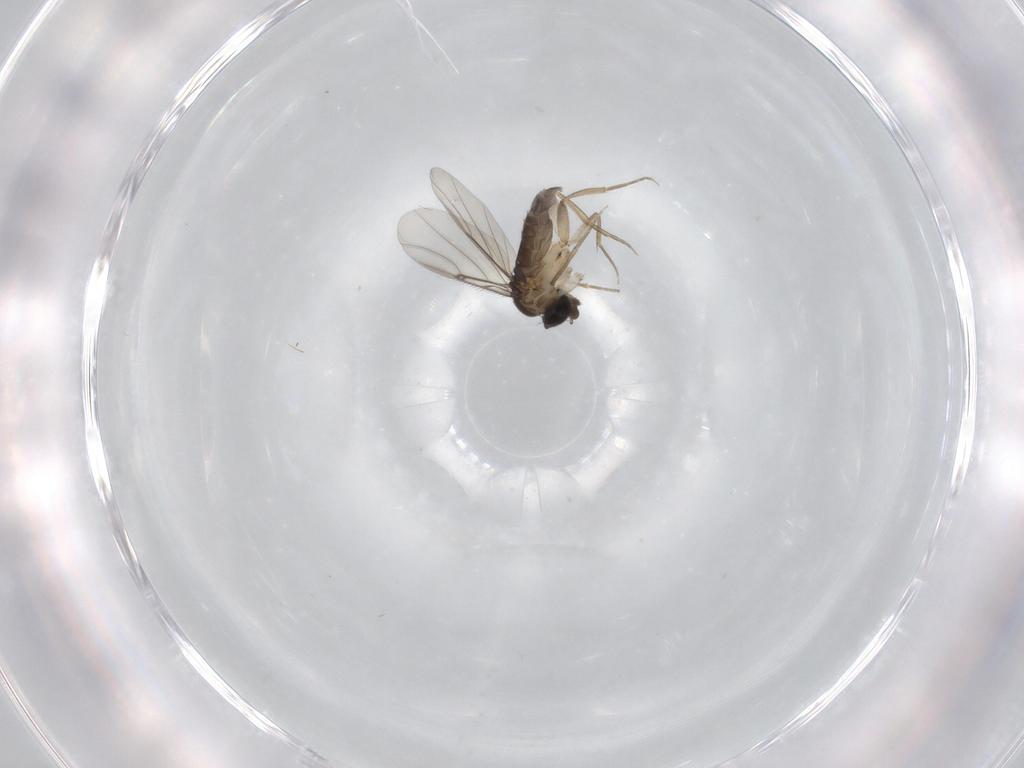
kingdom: Animalia
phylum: Arthropoda
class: Insecta
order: Diptera
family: Phoridae
